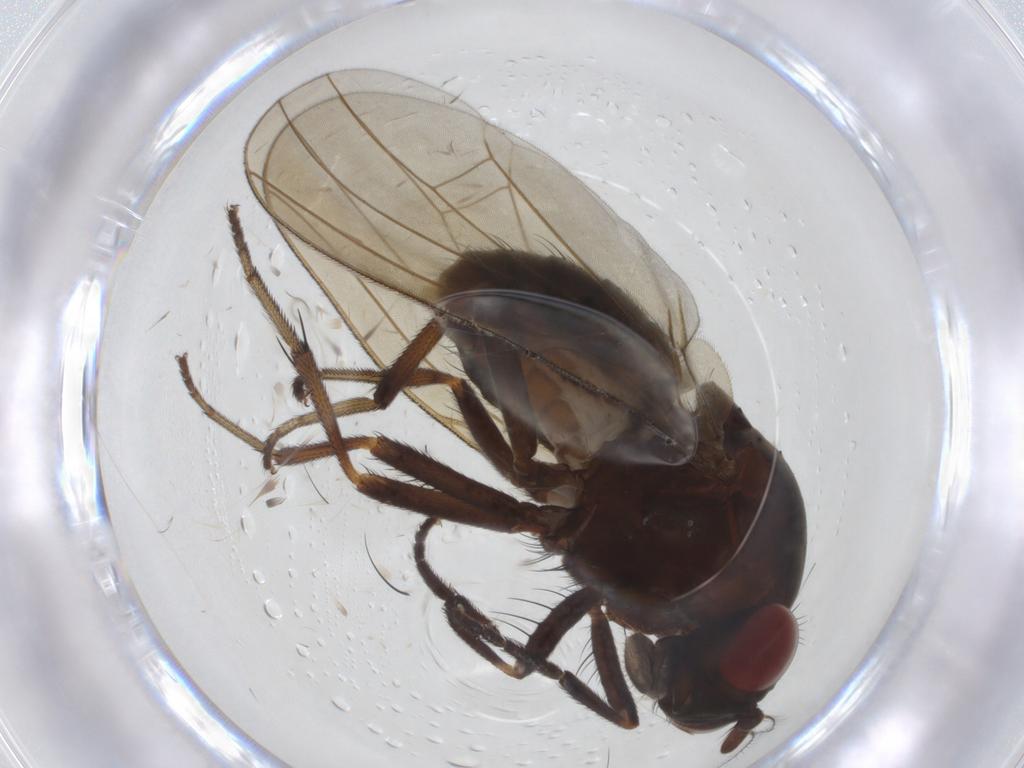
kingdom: Animalia
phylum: Arthropoda
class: Insecta
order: Diptera
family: Cecidomyiidae
